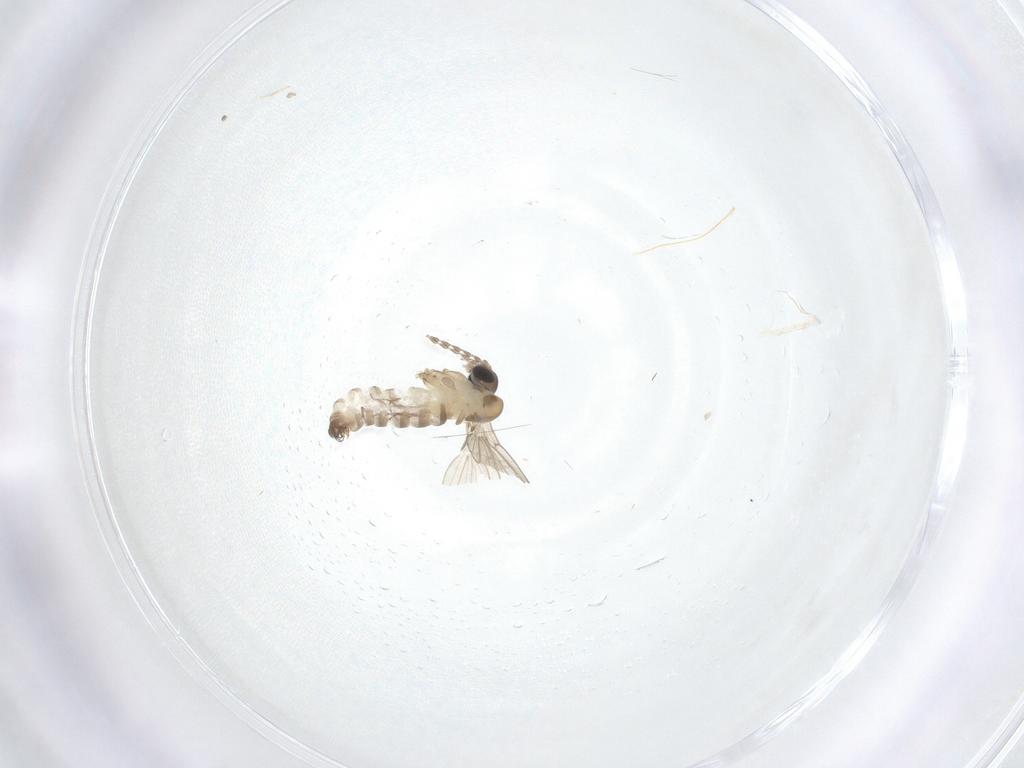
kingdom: Animalia
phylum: Arthropoda
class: Insecta
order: Diptera
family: Psychodidae
